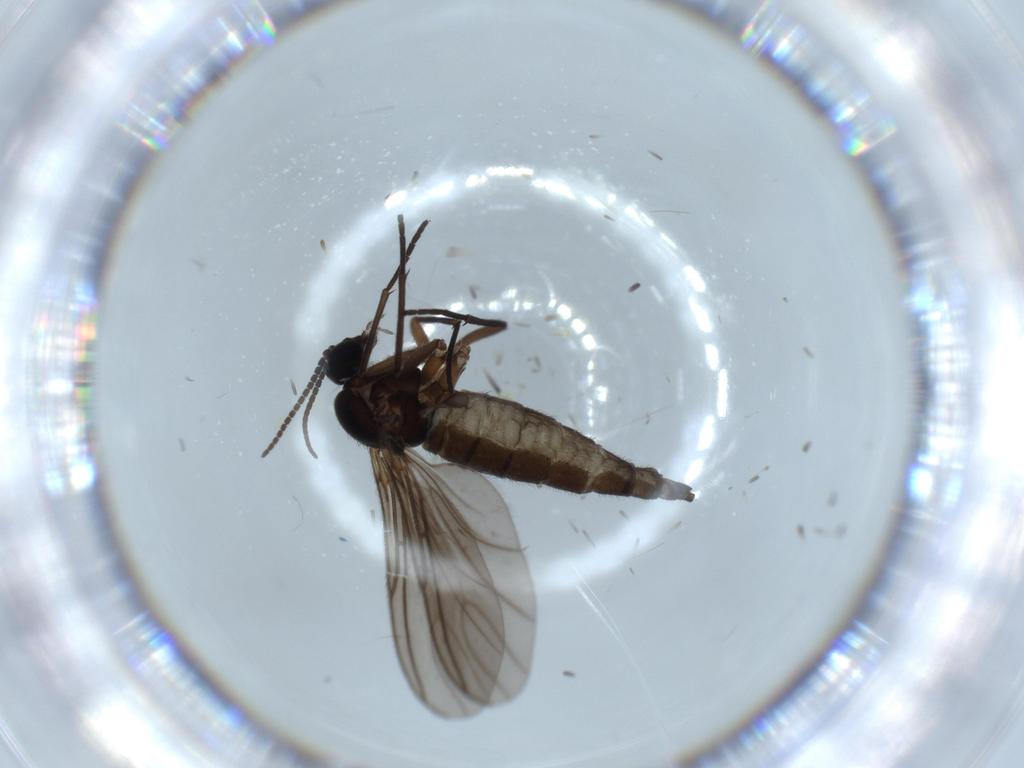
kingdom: Animalia
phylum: Arthropoda
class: Insecta
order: Diptera
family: Sciaridae
